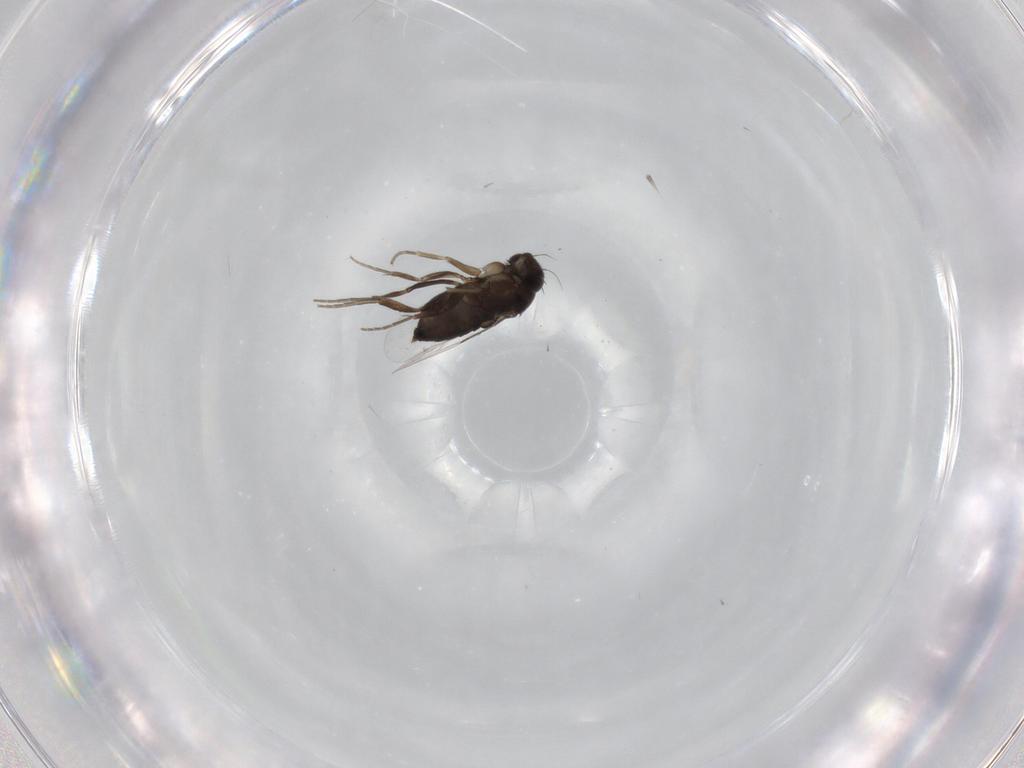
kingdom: Animalia
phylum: Arthropoda
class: Insecta
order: Diptera
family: Phoridae
